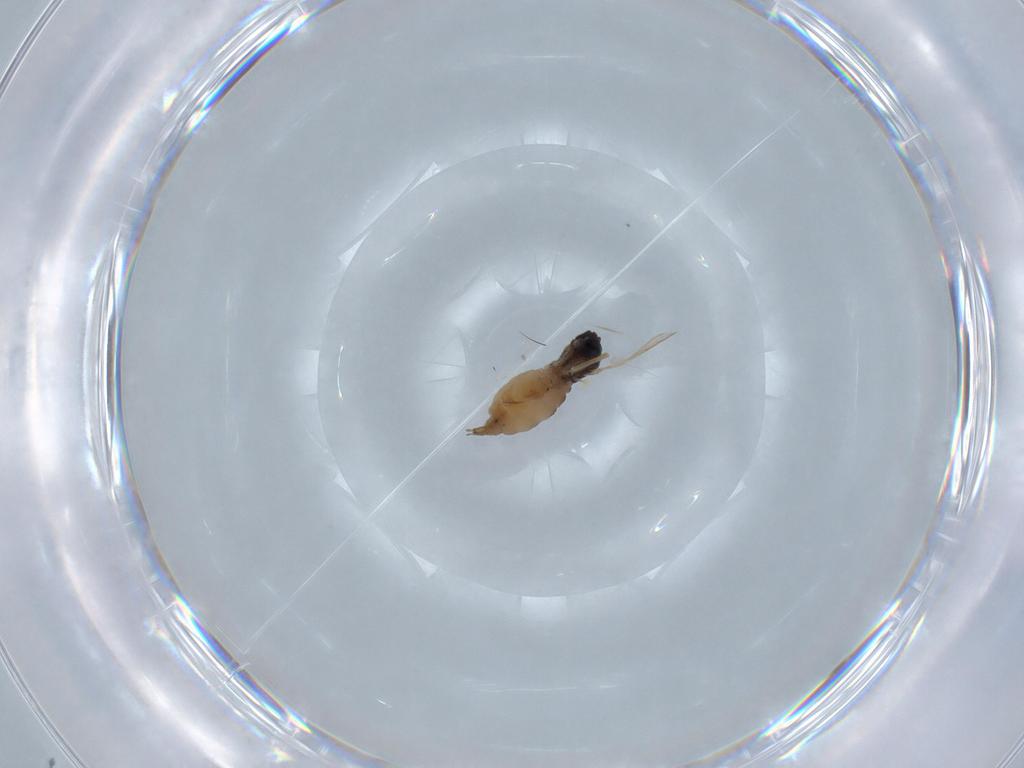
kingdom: Animalia
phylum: Arthropoda
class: Insecta
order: Diptera
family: Sciaridae
